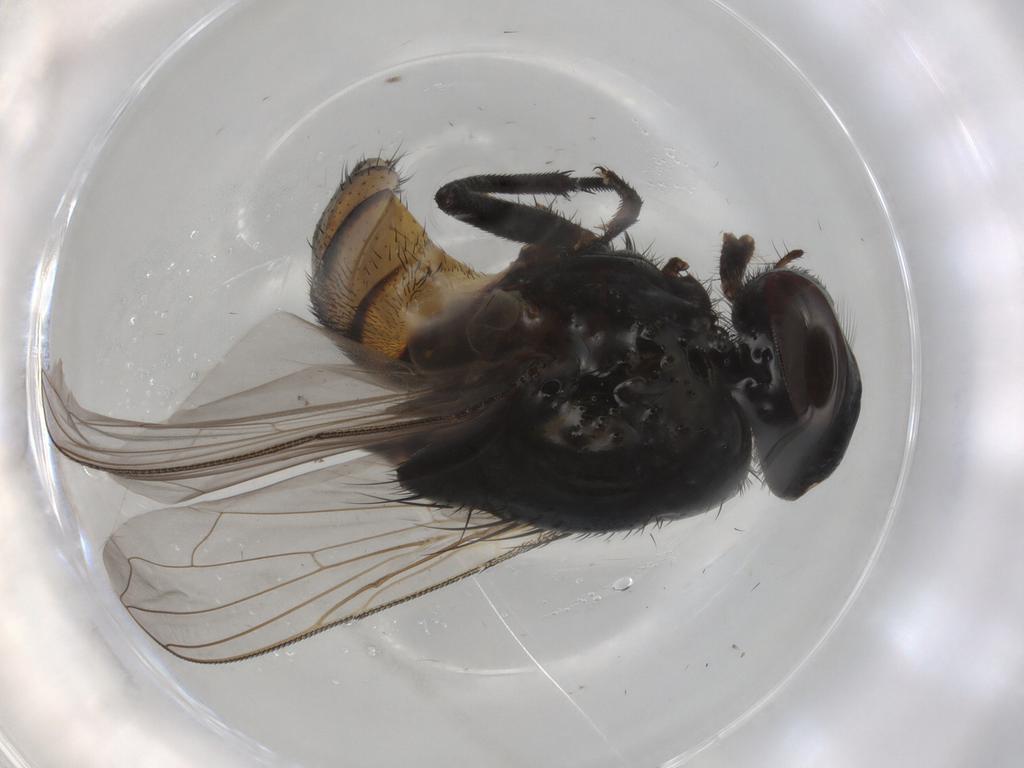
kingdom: Animalia
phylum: Arthropoda
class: Insecta
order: Diptera
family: Muscidae
